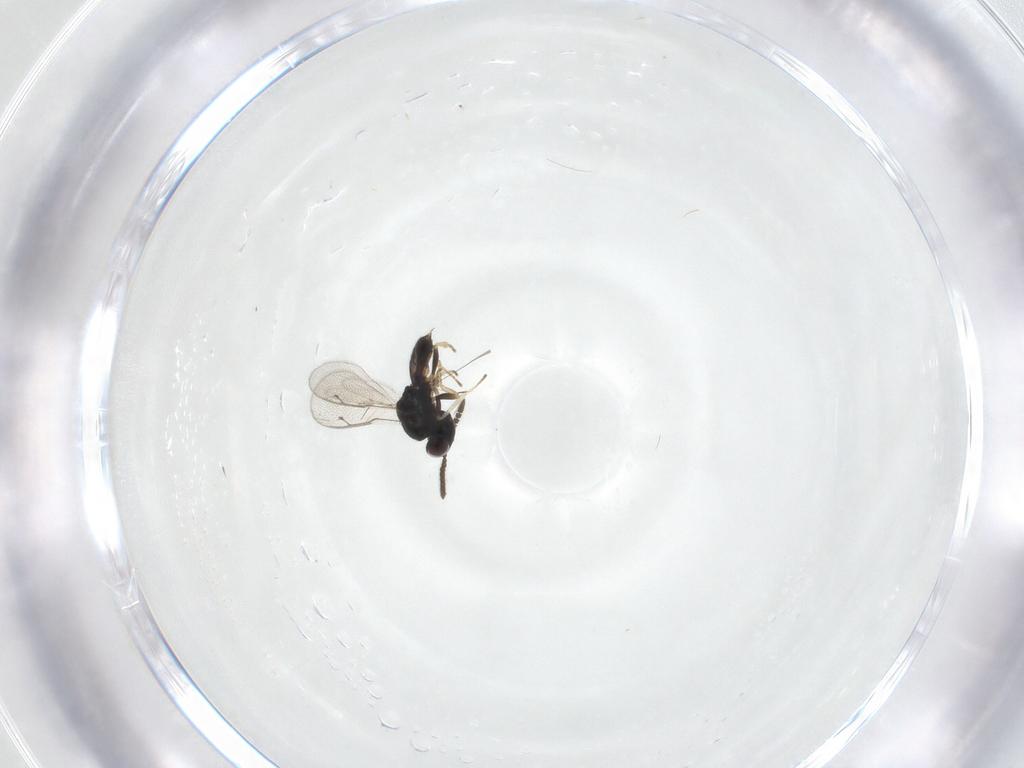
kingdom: Animalia
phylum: Arthropoda
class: Insecta
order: Hymenoptera
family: Pteromalidae
